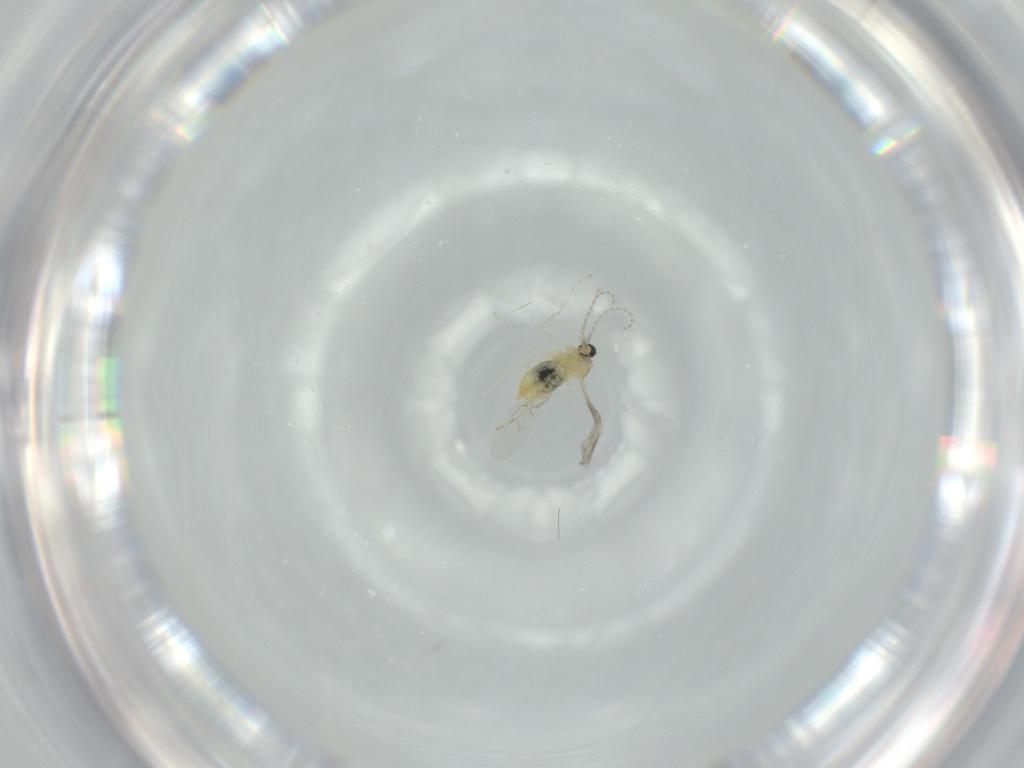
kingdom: Animalia
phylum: Arthropoda
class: Insecta
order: Diptera
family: Cecidomyiidae
